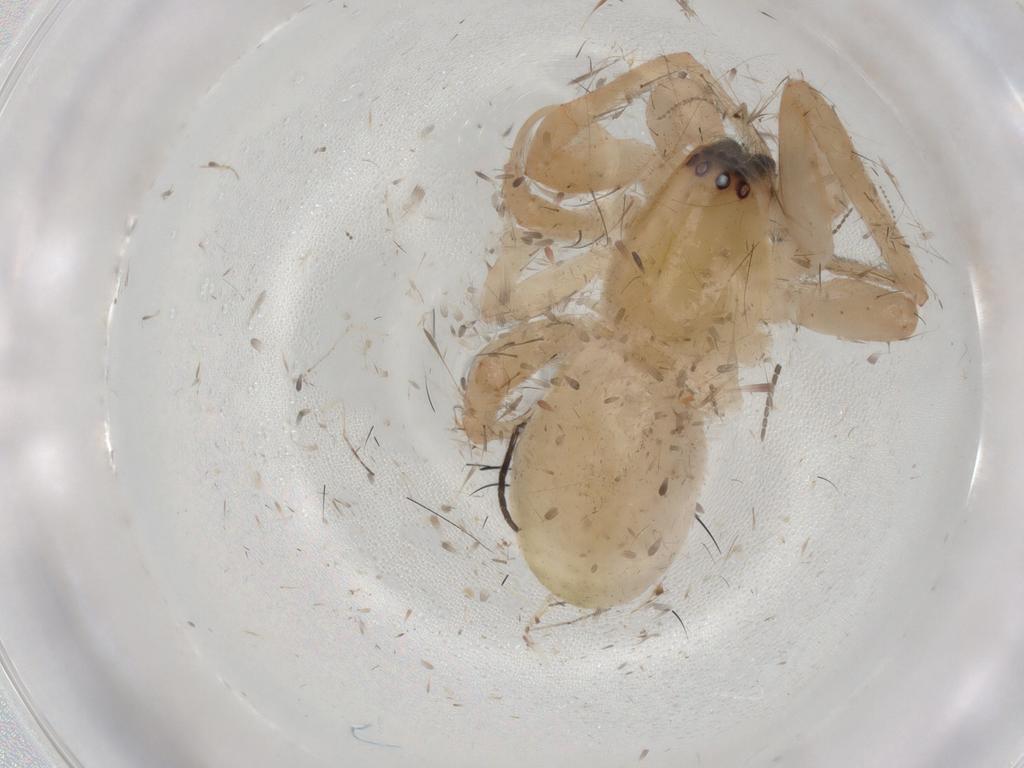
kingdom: Animalia
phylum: Arthropoda
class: Arachnida
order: Araneae
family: Anyphaenidae
